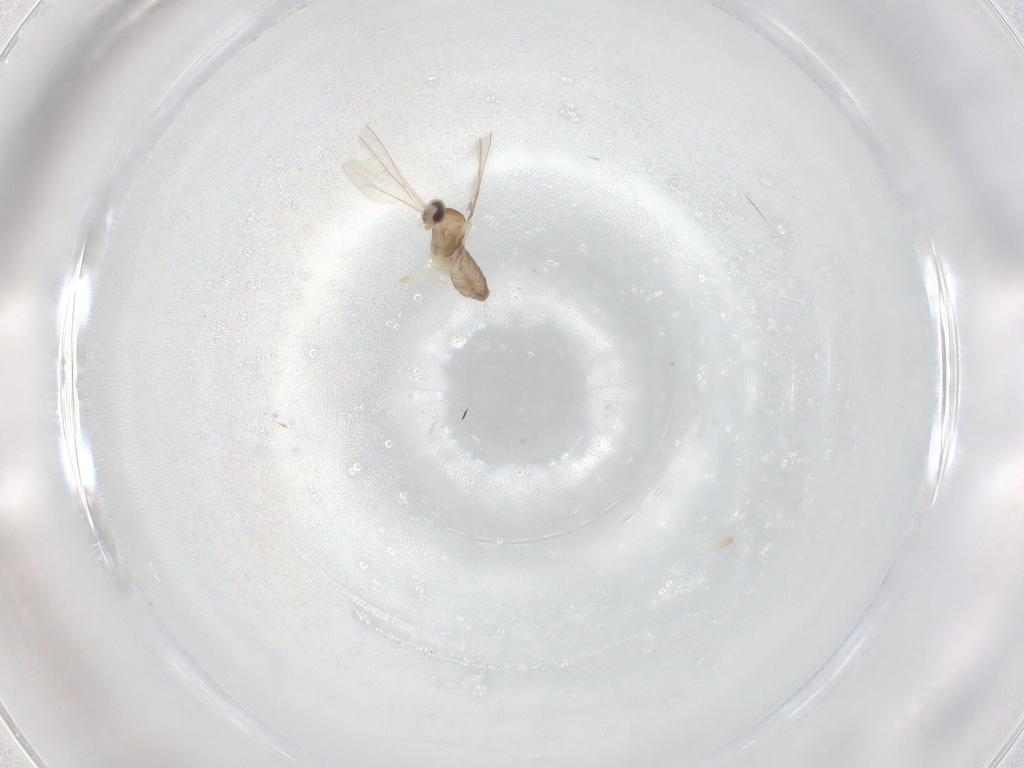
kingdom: Animalia
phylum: Arthropoda
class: Insecta
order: Diptera
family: Cecidomyiidae
